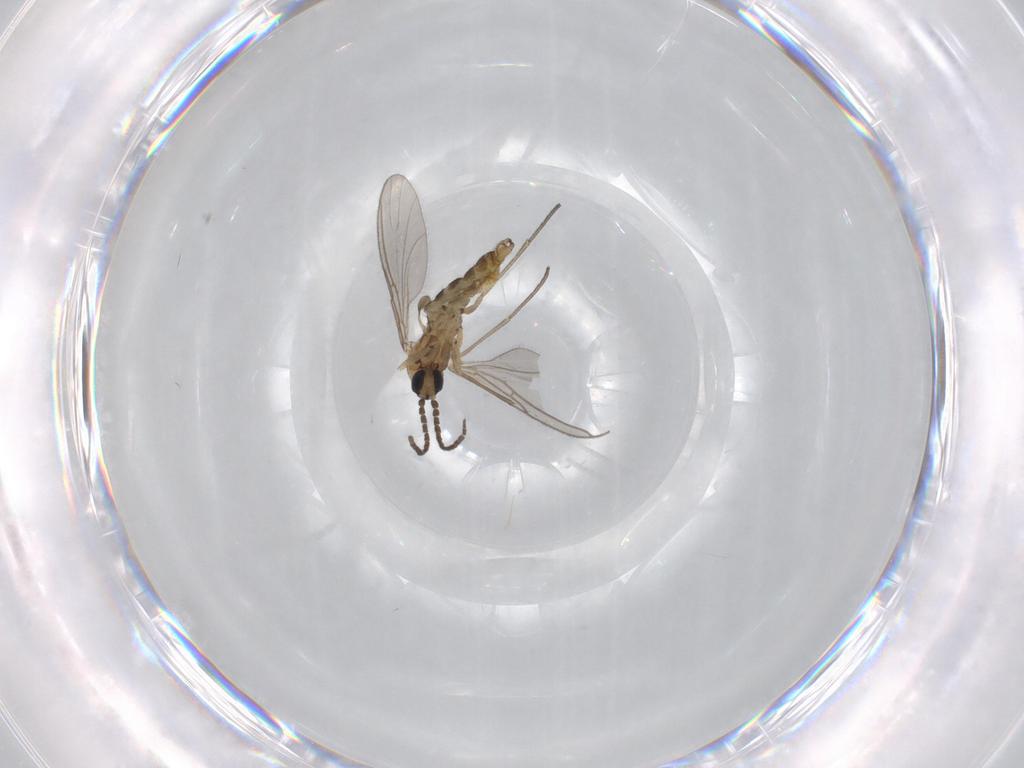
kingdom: Animalia
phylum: Arthropoda
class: Insecta
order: Diptera
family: Sciaridae
